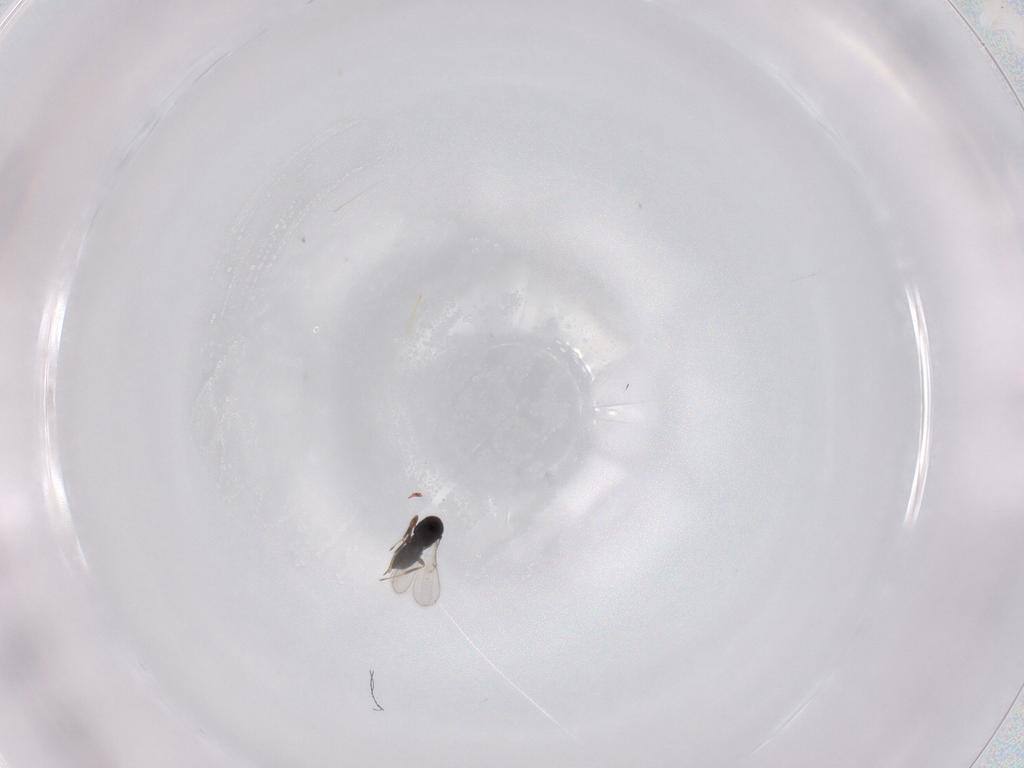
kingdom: Animalia
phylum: Arthropoda
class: Insecta
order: Hymenoptera
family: Scelionidae
